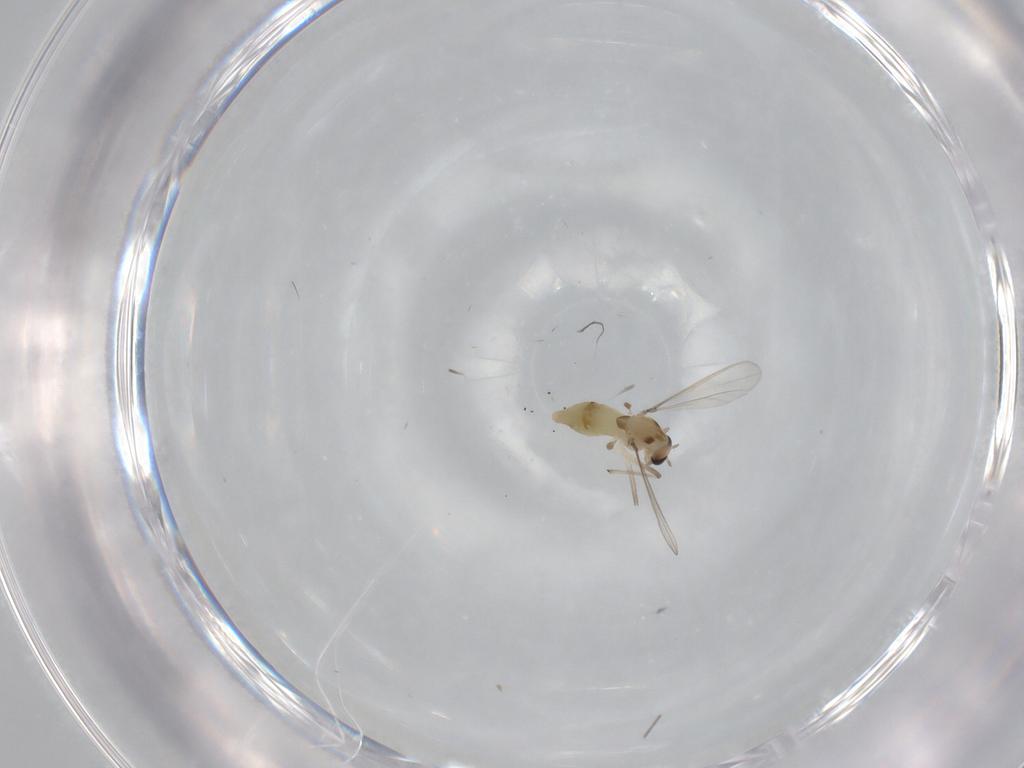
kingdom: Animalia
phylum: Arthropoda
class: Insecta
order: Diptera
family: Chironomidae
